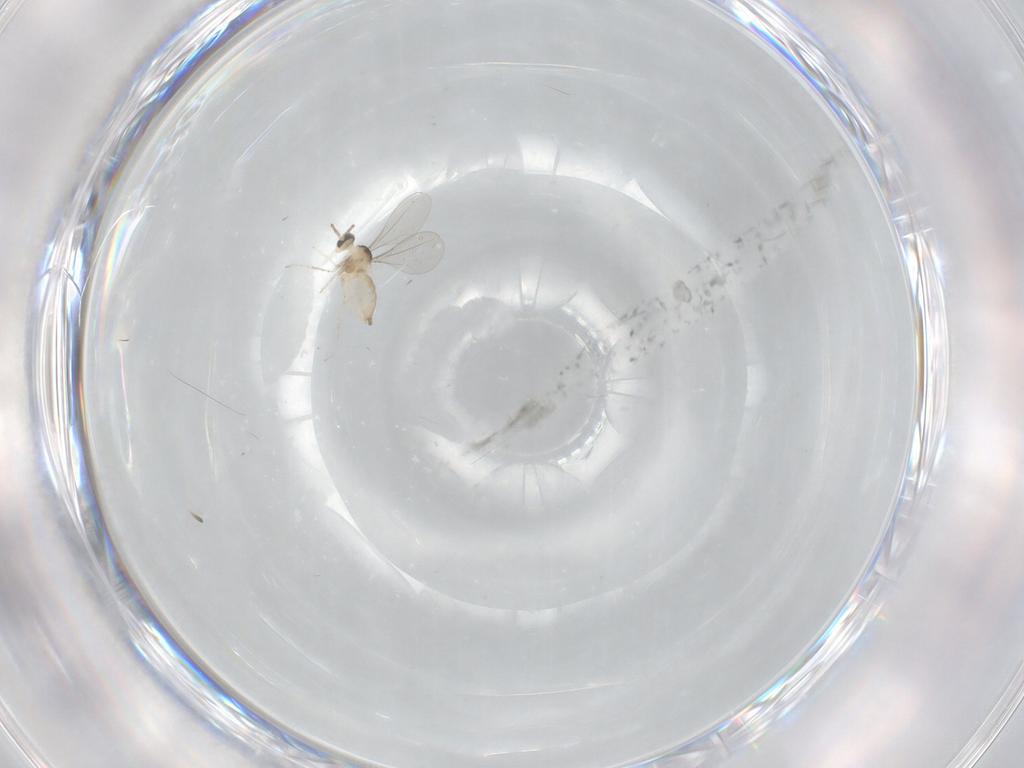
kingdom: Animalia
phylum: Arthropoda
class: Insecta
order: Diptera
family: Cecidomyiidae
